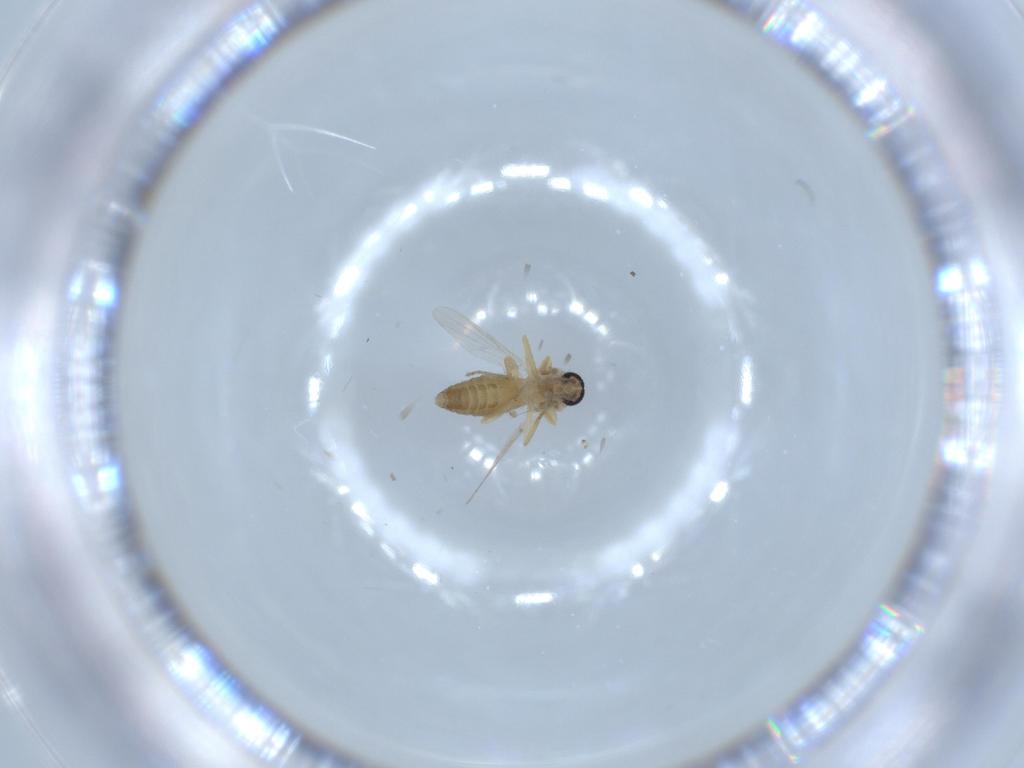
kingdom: Animalia
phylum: Arthropoda
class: Insecta
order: Diptera
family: Ceratopogonidae
